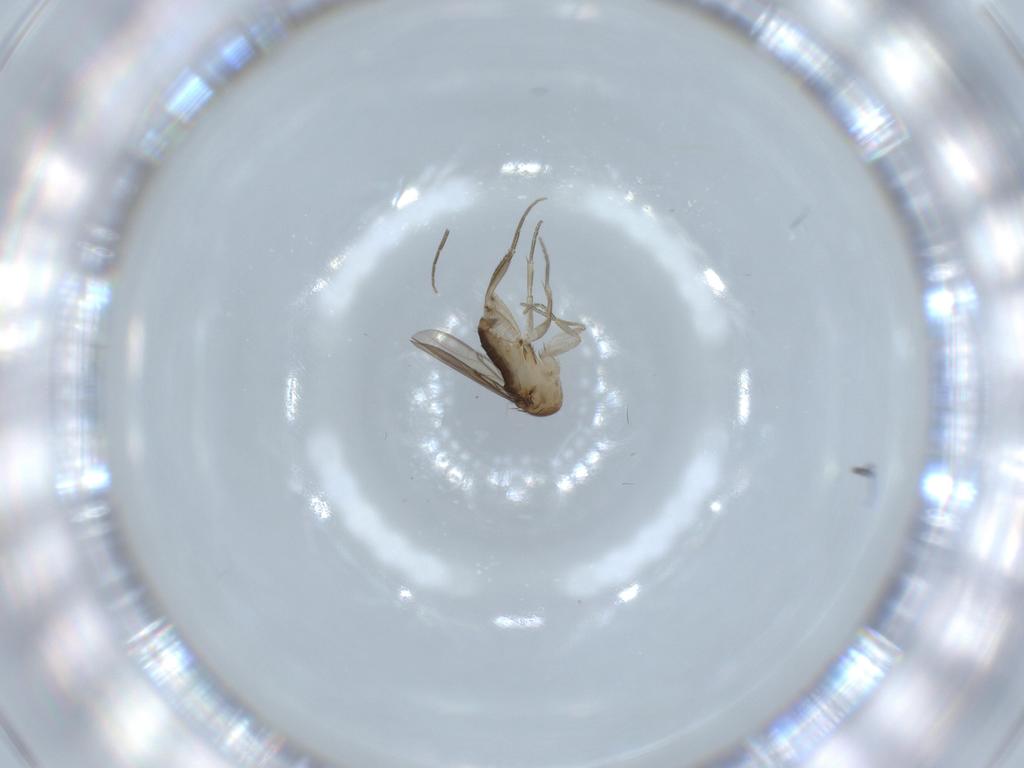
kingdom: Animalia
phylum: Arthropoda
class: Insecta
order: Diptera
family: Phoridae
